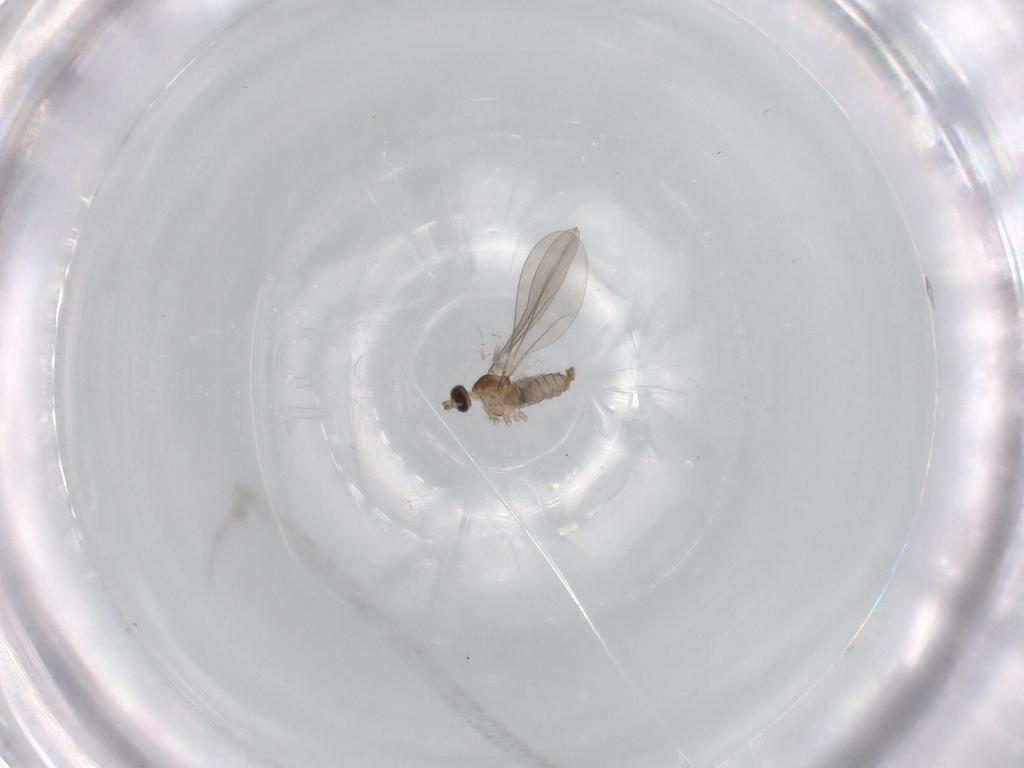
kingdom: Animalia
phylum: Arthropoda
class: Insecta
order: Diptera
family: Cecidomyiidae
